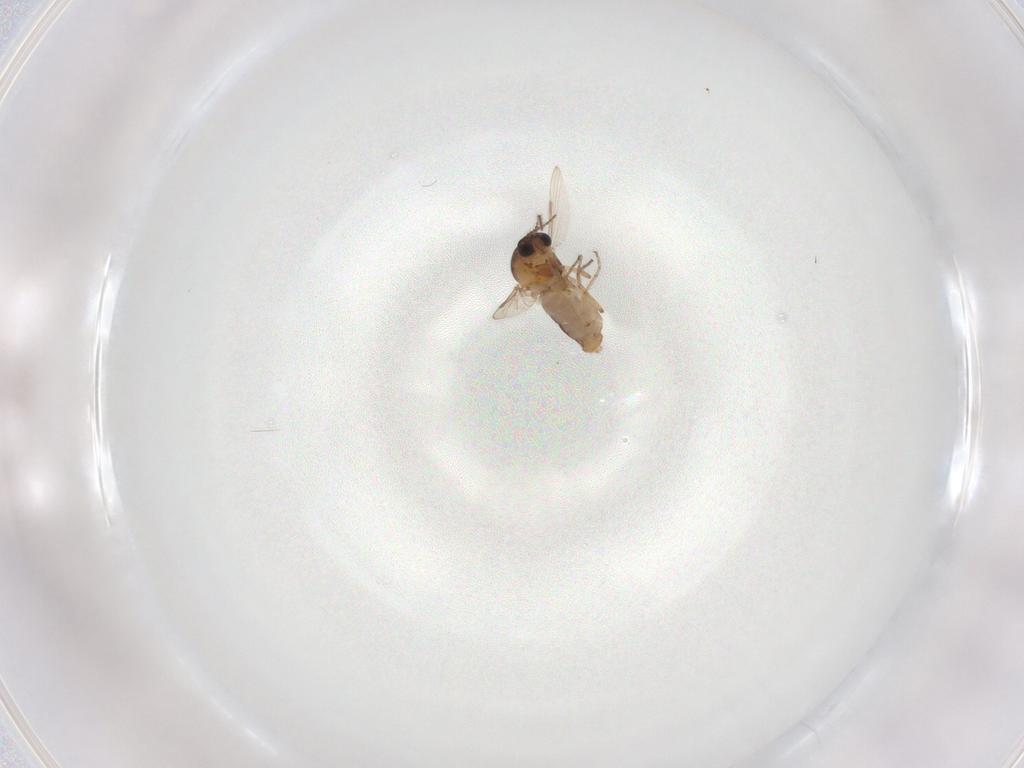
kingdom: Animalia
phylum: Arthropoda
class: Insecta
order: Diptera
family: Ceratopogonidae
